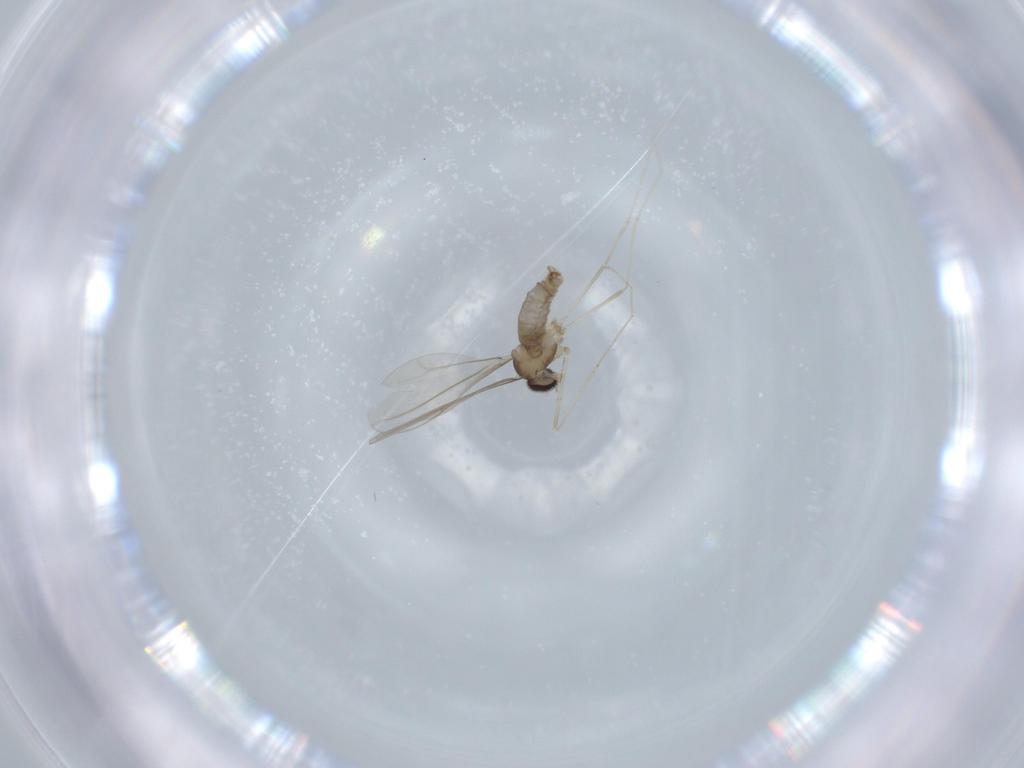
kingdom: Animalia
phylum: Arthropoda
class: Insecta
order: Diptera
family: Cecidomyiidae
